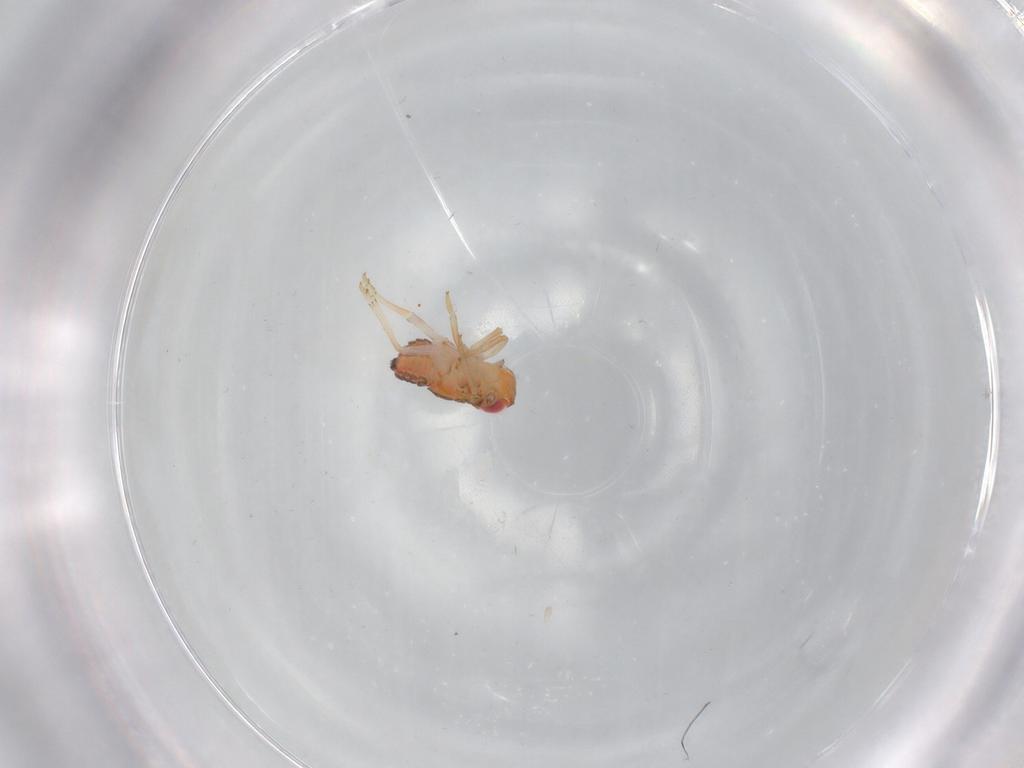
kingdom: Animalia
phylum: Arthropoda
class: Insecta
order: Hemiptera
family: Issidae
